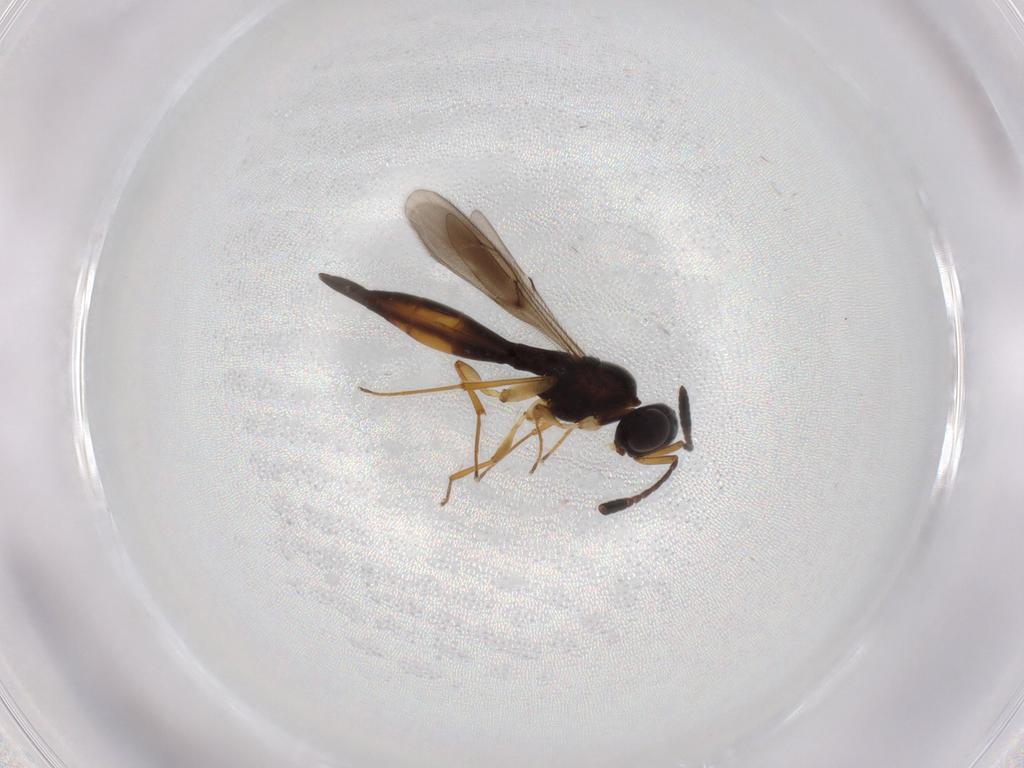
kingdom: Animalia
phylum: Arthropoda
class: Insecta
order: Hymenoptera
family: Scelionidae
